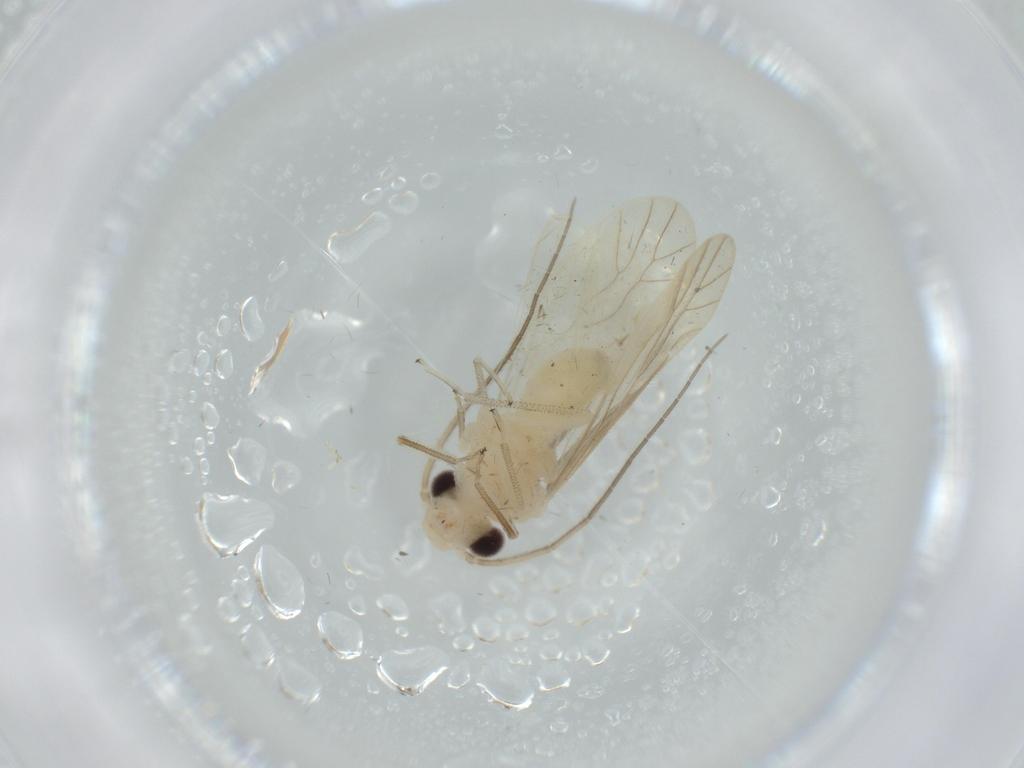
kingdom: Animalia
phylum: Arthropoda
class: Insecta
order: Psocodea
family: Caeciliusidae
